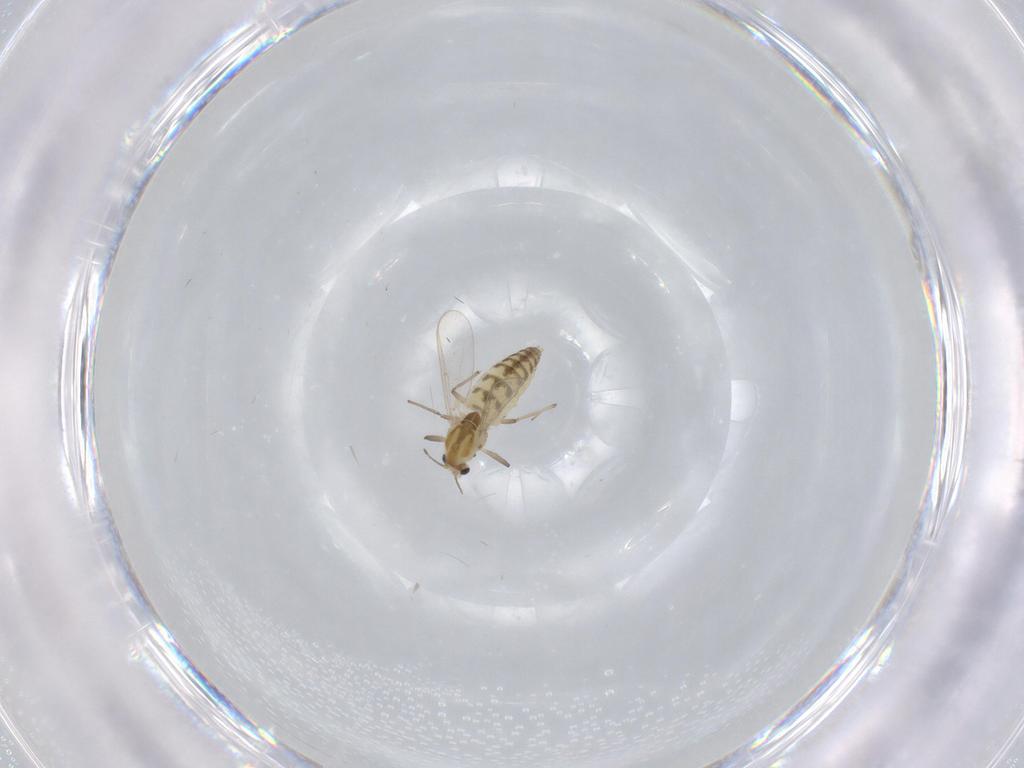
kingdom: Animalia
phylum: Arthropoda
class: Insecta
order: Diptera
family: Chironomidae
